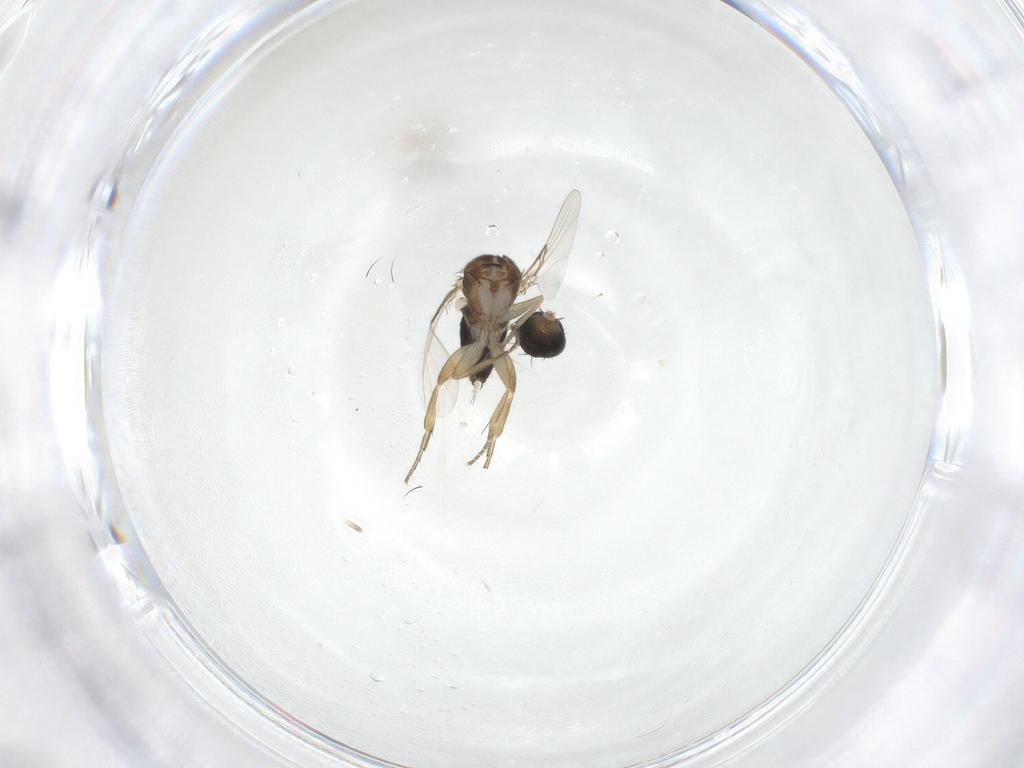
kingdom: Animalia
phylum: Arthropoda
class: Insecta
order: Diptera
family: Phoridae
